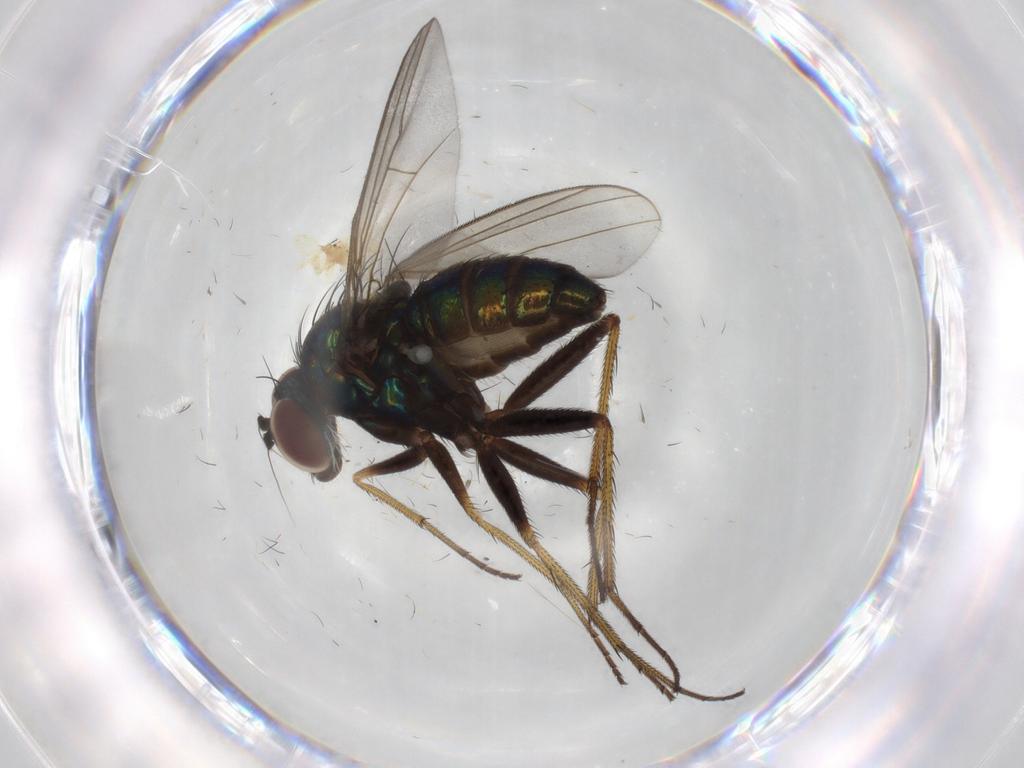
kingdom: Animalia
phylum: Arthropoda
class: Insecta
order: Diptera
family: Dolichopodidae
